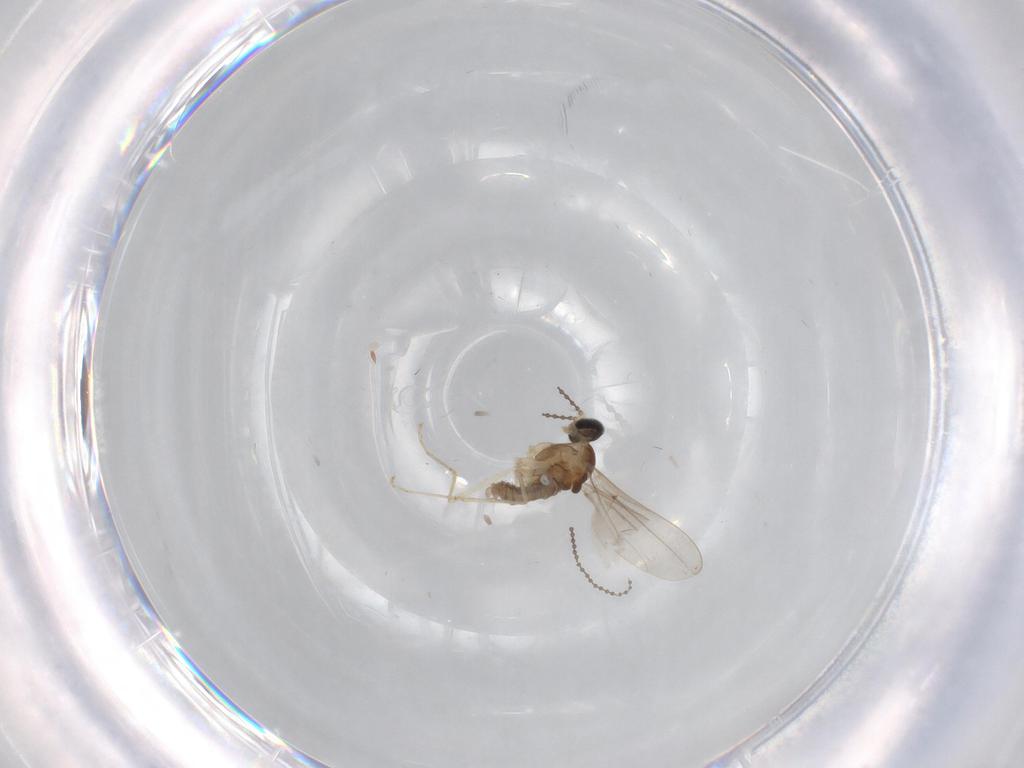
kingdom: Animalia
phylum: Arthropoda
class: Insecta
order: Diptera
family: Cecidomyiidae
